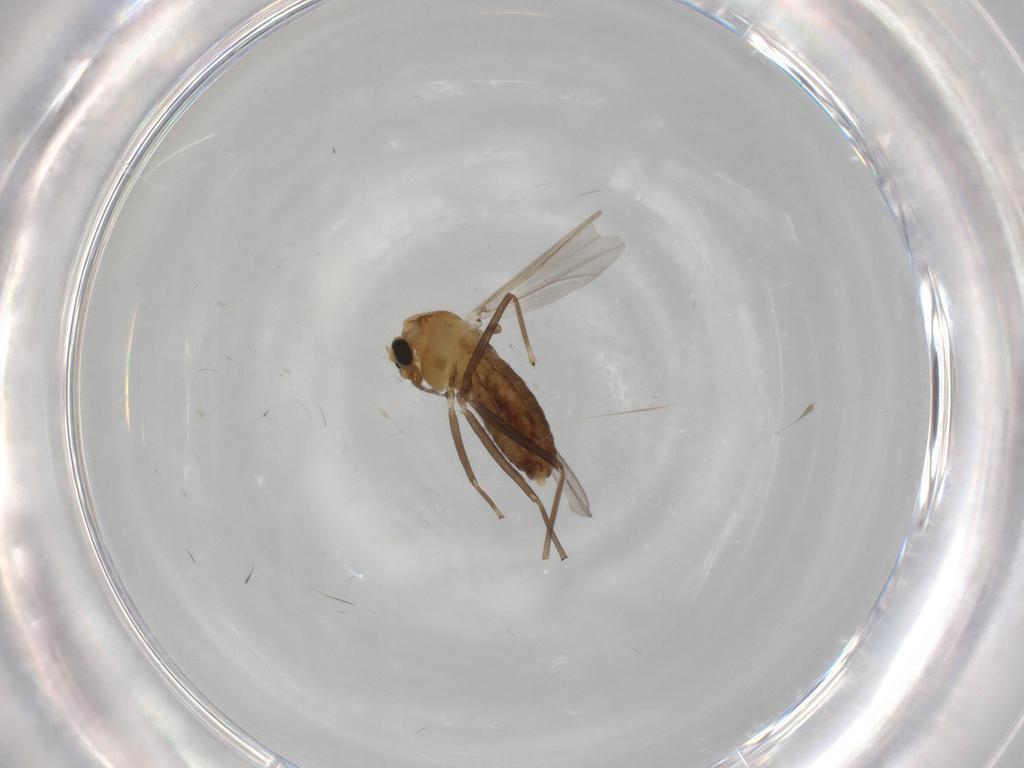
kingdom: Animalia
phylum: Arthropoda
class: Insecta
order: Diptera
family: Chironomidae
